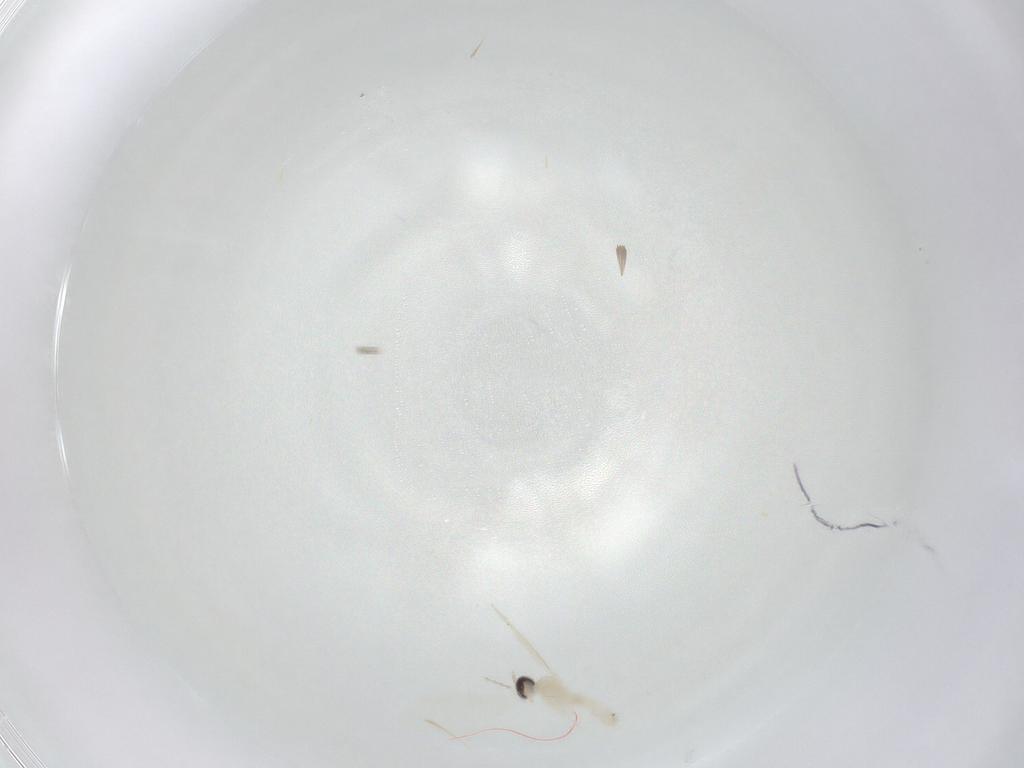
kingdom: Animalia
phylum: Arthropoda
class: Insecta
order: Diptera
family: Cecidomyiidae
